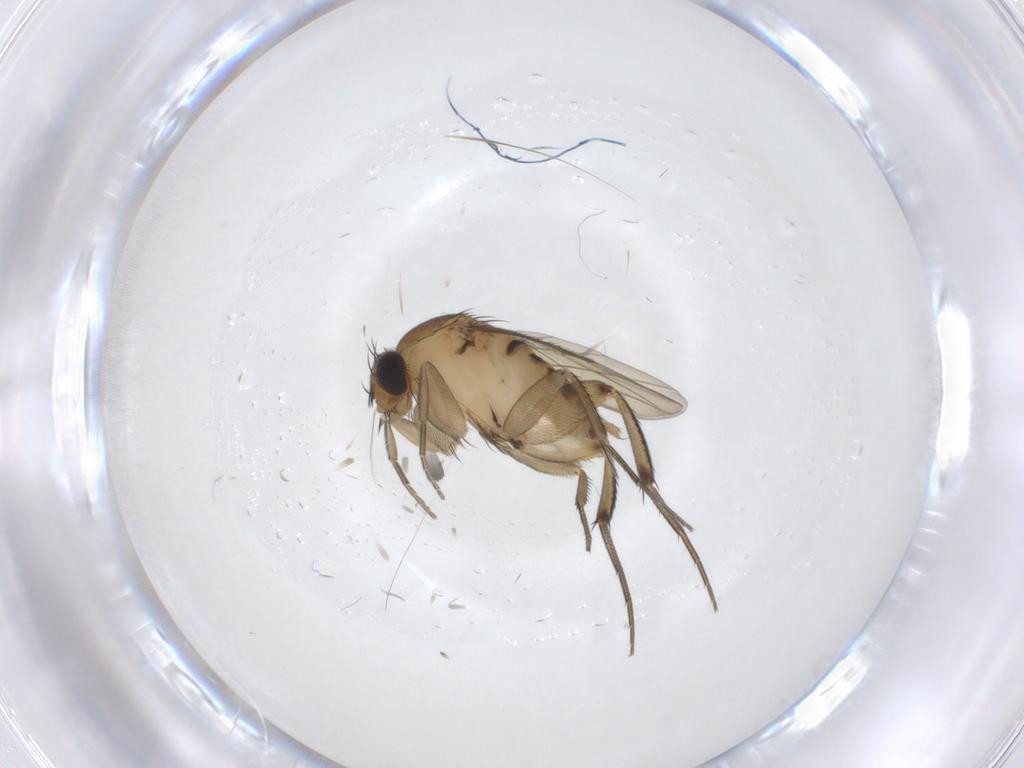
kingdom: Animalia
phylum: Arthropoda
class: Insecta
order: Diptera
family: Phoridae
